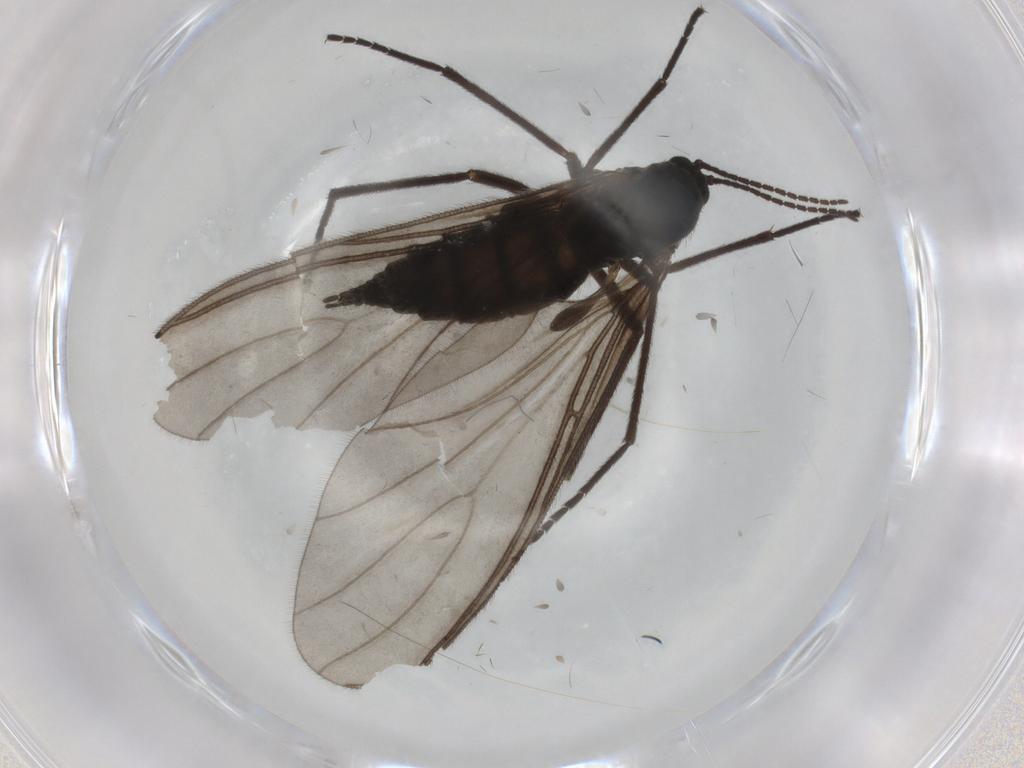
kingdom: Animalia
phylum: Arthropoda
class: Insecta
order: Diptera
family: Sciaridae
